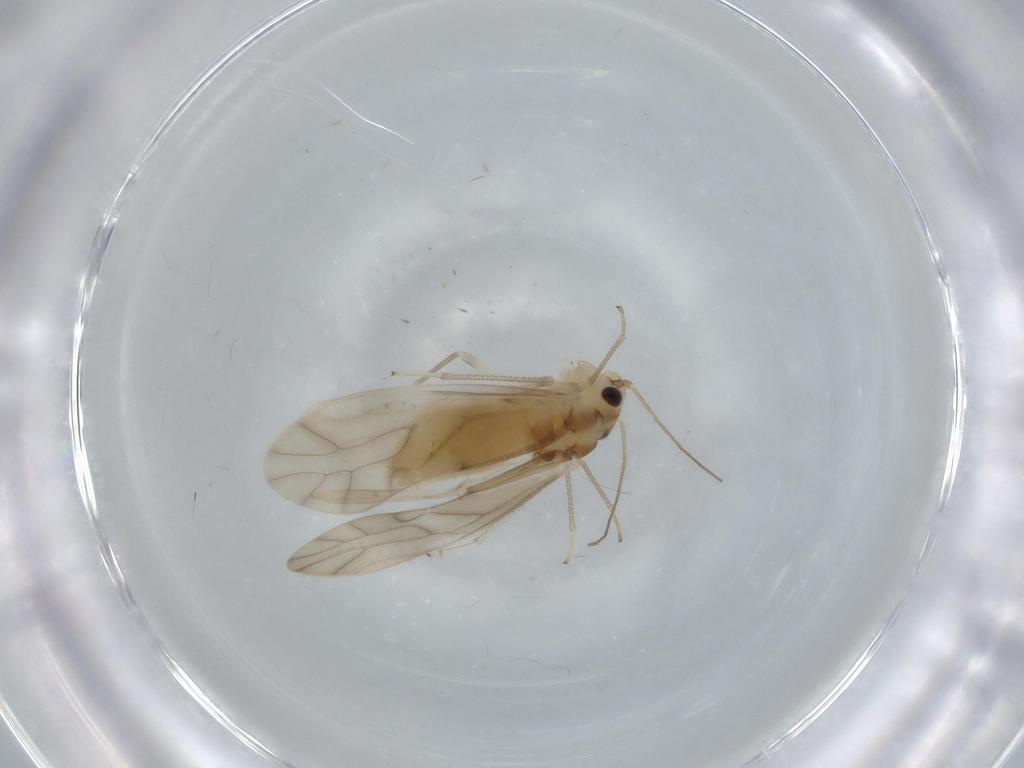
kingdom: Animalia
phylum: Arthropoda
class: Insecta
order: Psocodea
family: Caeciliusidae
